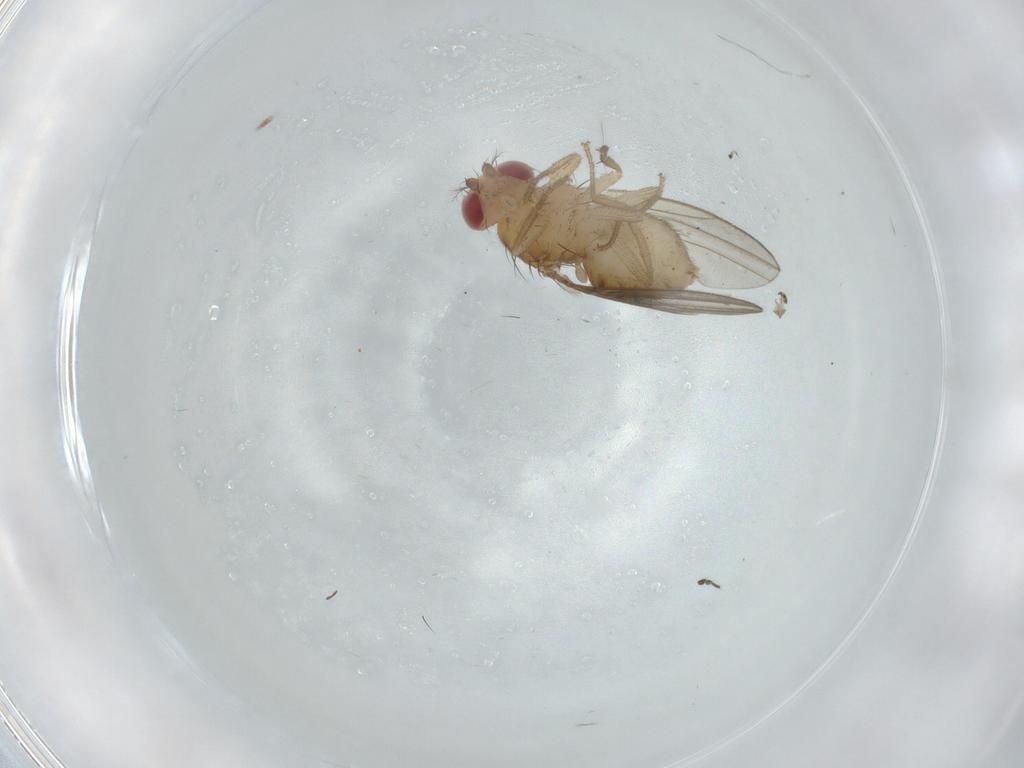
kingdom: Animalia
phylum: Arthropoda
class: Insecta
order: Diptera
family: Drosophilidae
